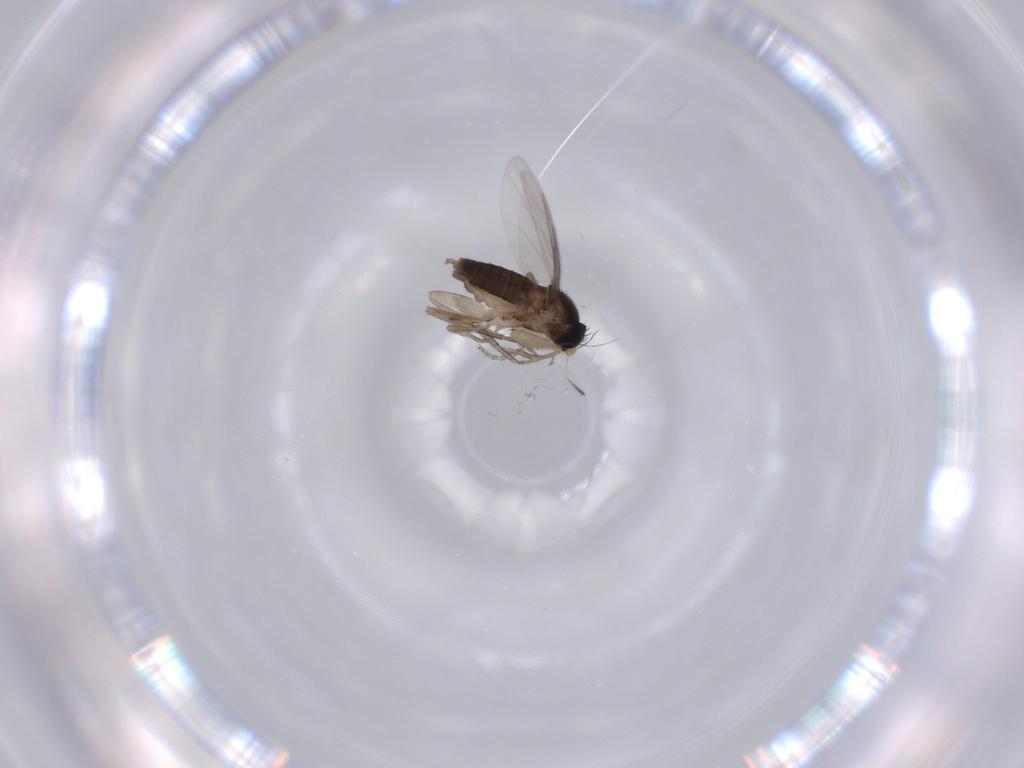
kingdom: Animalia
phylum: Arthropoda
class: Insecta
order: Diptera
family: Phoridae
